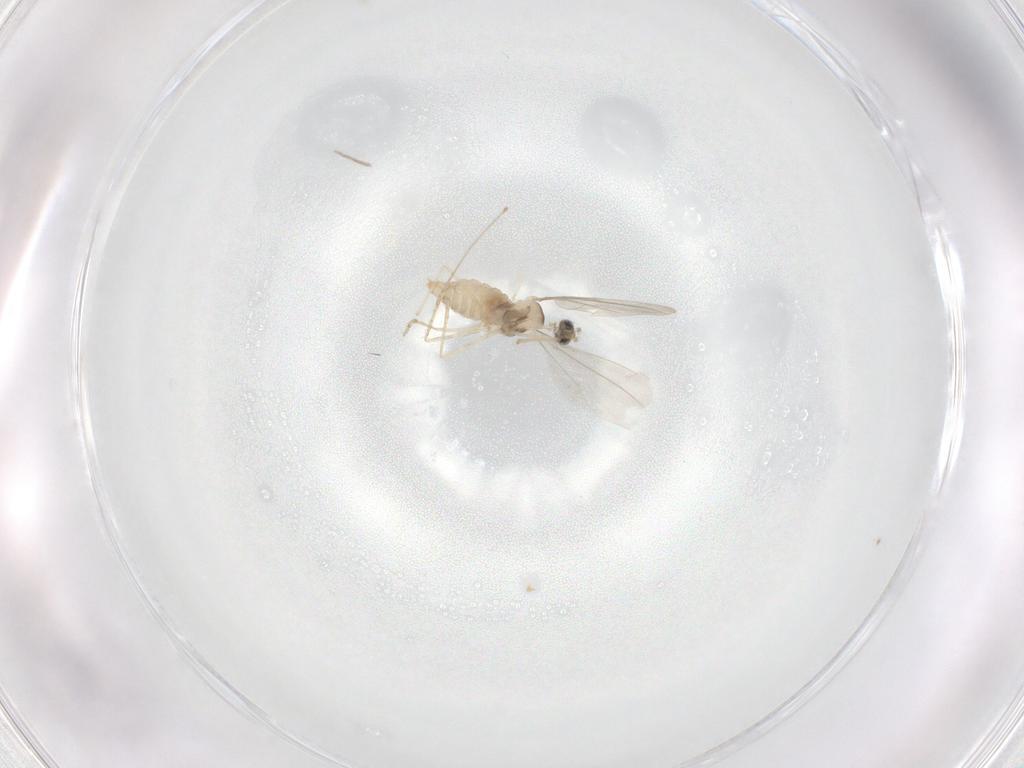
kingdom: Animalia
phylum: Arthropoda
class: Insecta
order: Diptera
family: Cecidomyiidae
